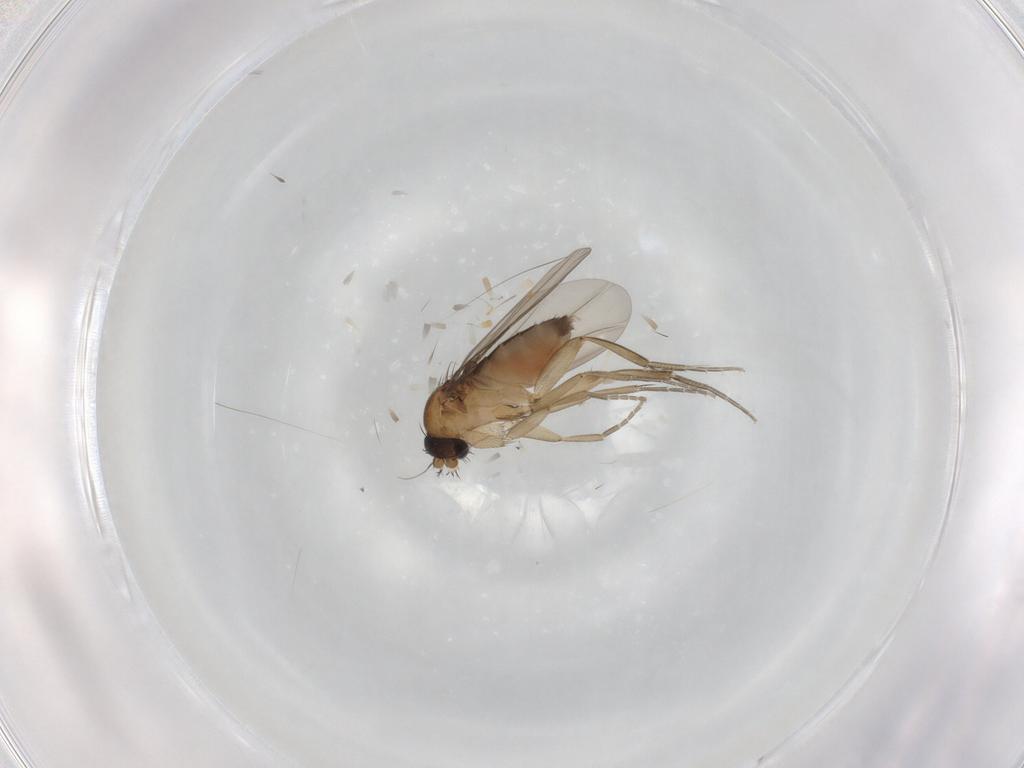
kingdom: Animalia
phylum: Arthropoda
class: Insecta
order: Diptera
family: Phoridae
